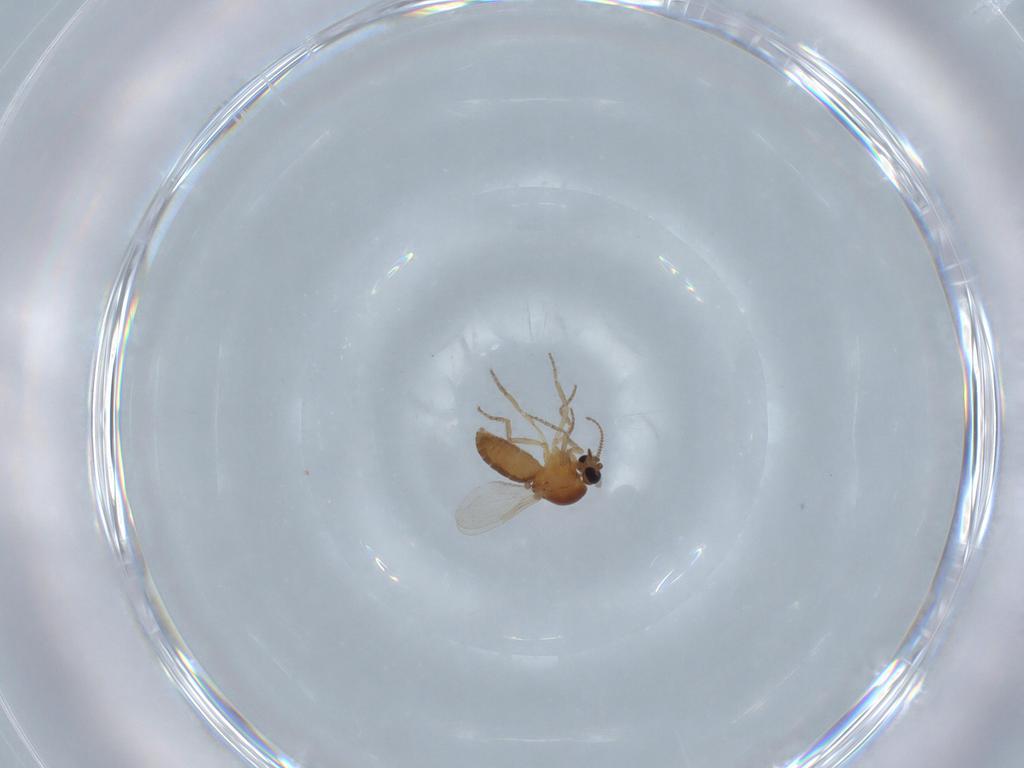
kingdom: Animalia
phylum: Arthropoda
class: Insecta
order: Diptera
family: Ceratopogonidae
